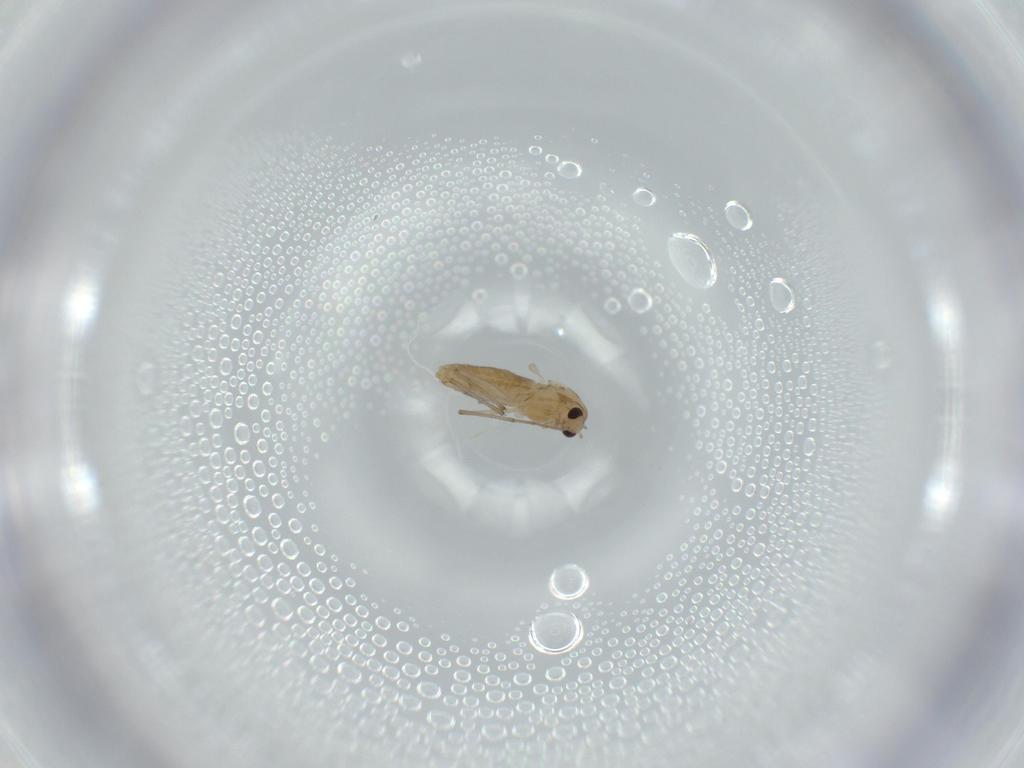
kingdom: Animalia
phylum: Arthropoda
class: Insecta
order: Diptera
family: Chironomidae
